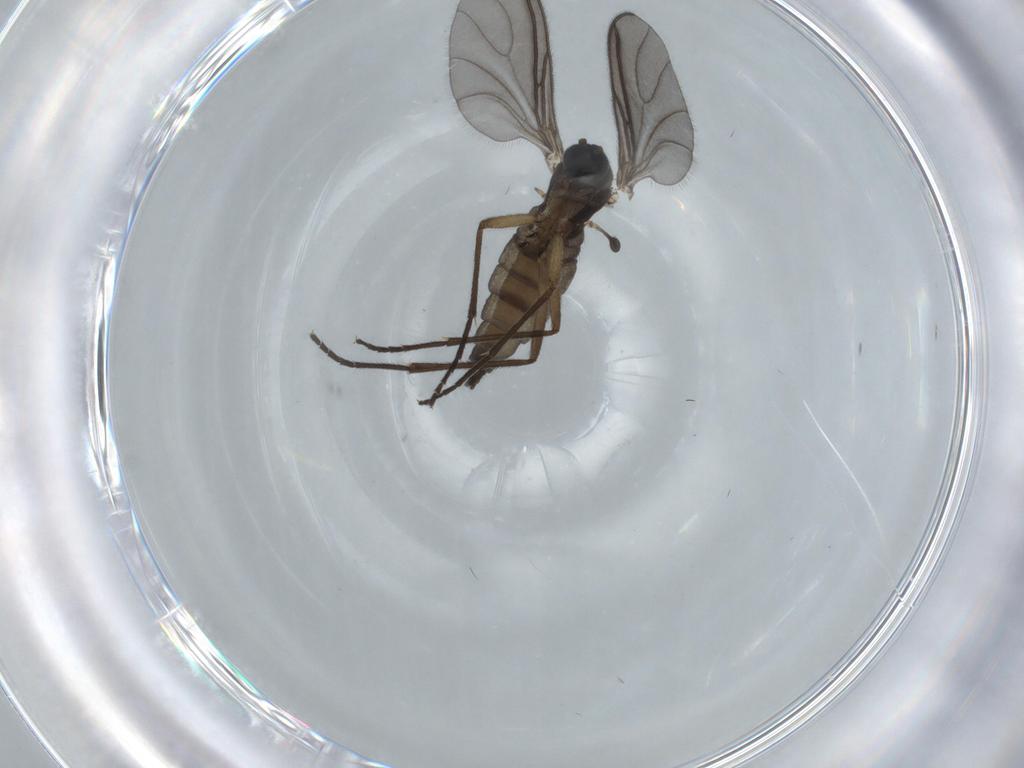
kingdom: Animalia
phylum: Arthropoda
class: Insecta
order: Diptera
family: Sciaridae
